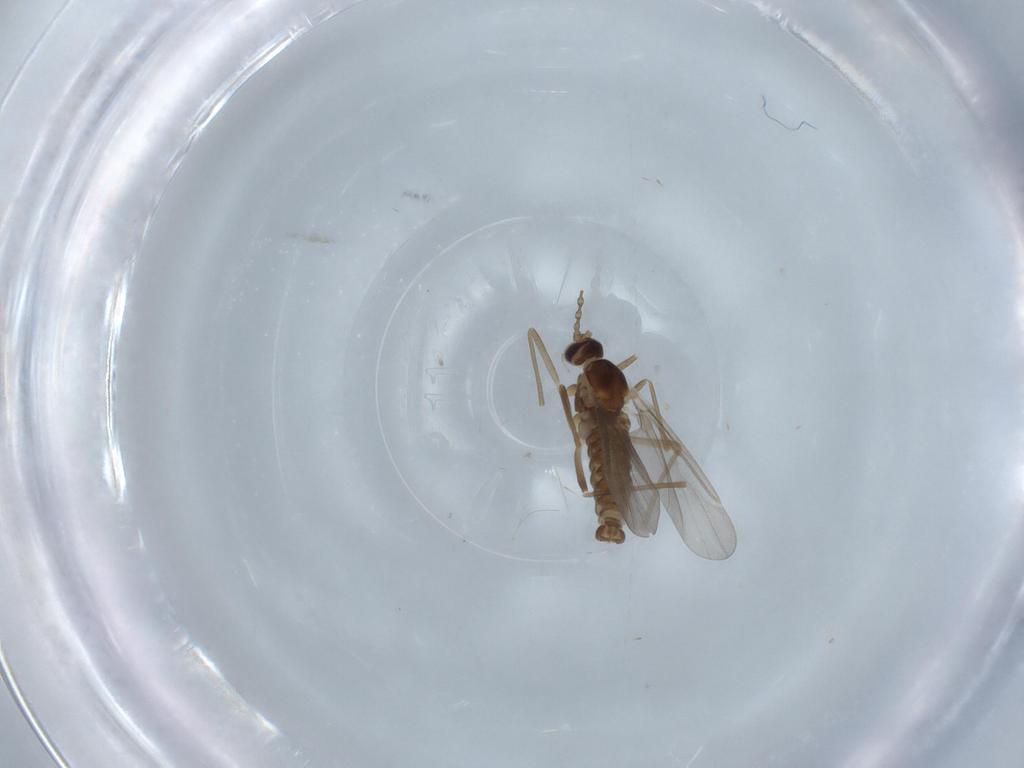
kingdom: Animalia
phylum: Arthropoda
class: Insecta
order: Diptera
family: Cecidomyiidae
